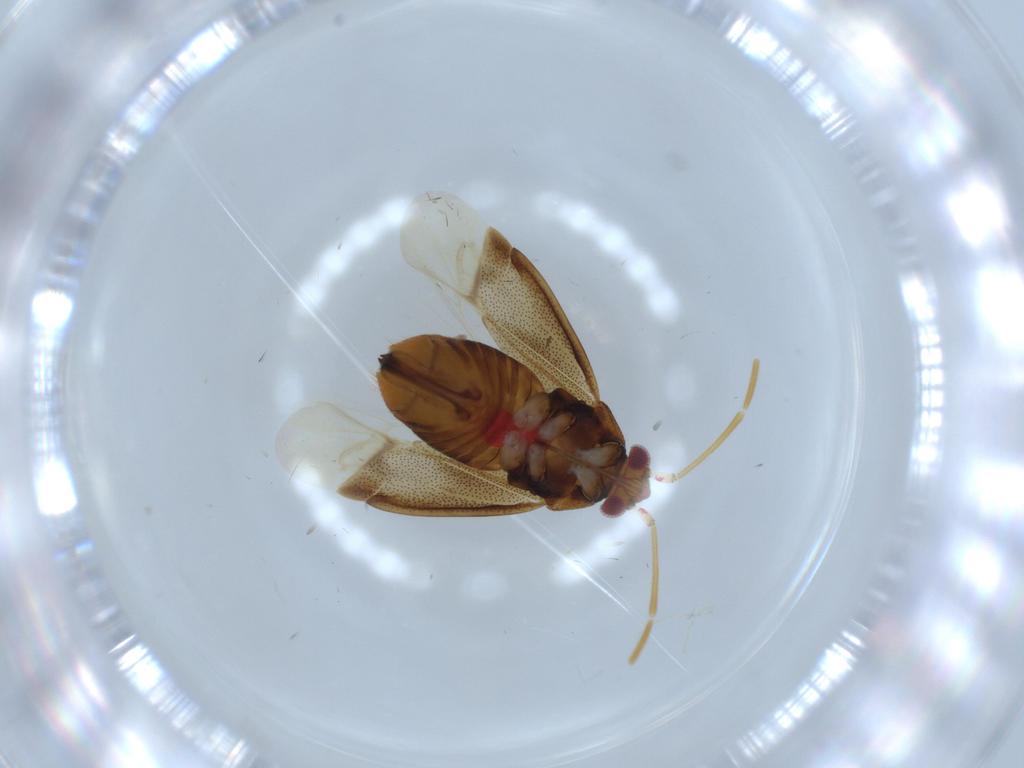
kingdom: Animalia
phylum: Arthropoda
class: Insecta
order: Hemiptera
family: Miridae
